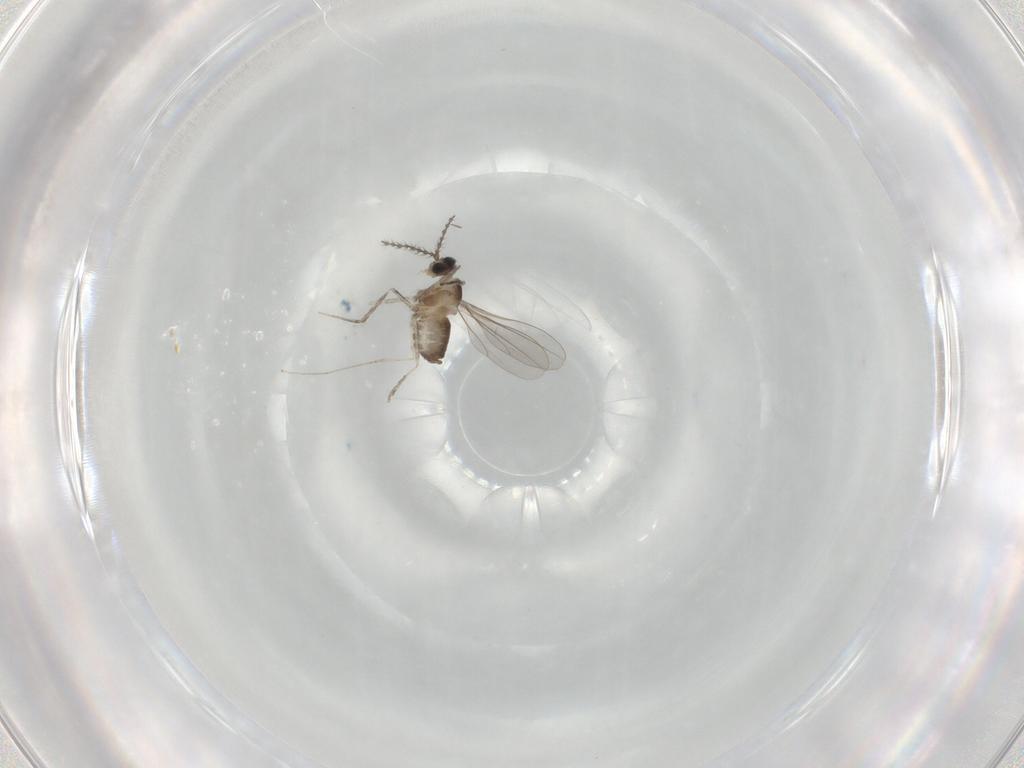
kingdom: Animalia
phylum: Arthropoda
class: Insecta
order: Diptera
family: Cecidomyiidae
